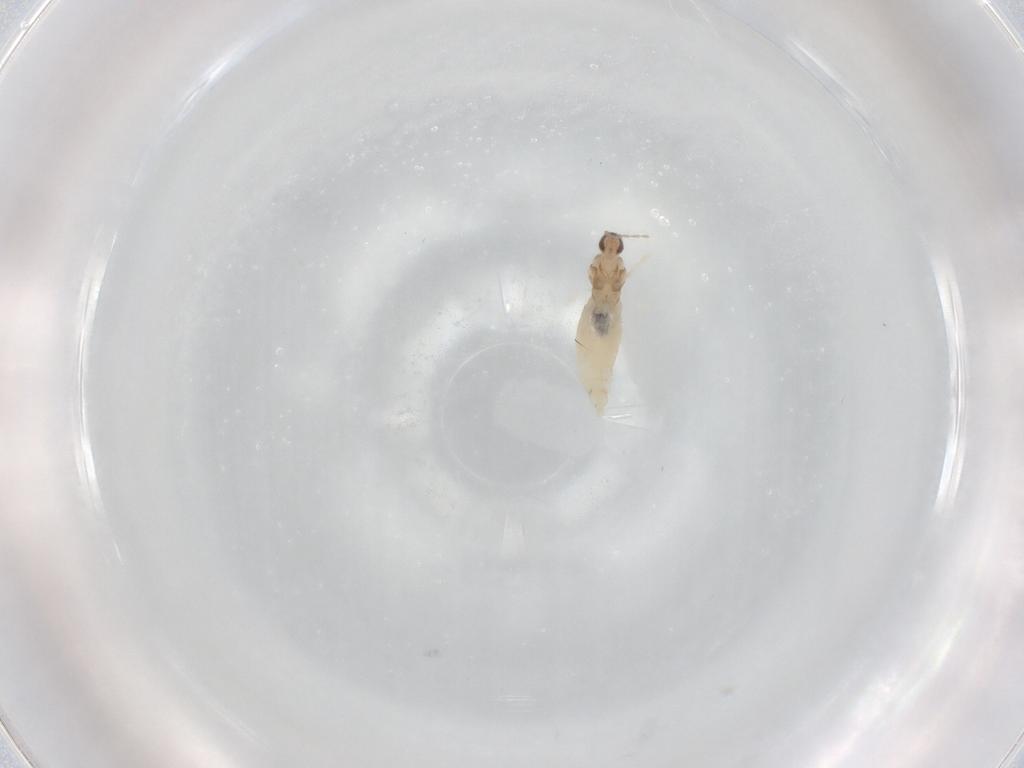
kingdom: Animalia
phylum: Arthropoda
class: Insecta
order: Diptera
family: Cecidomyiidae
